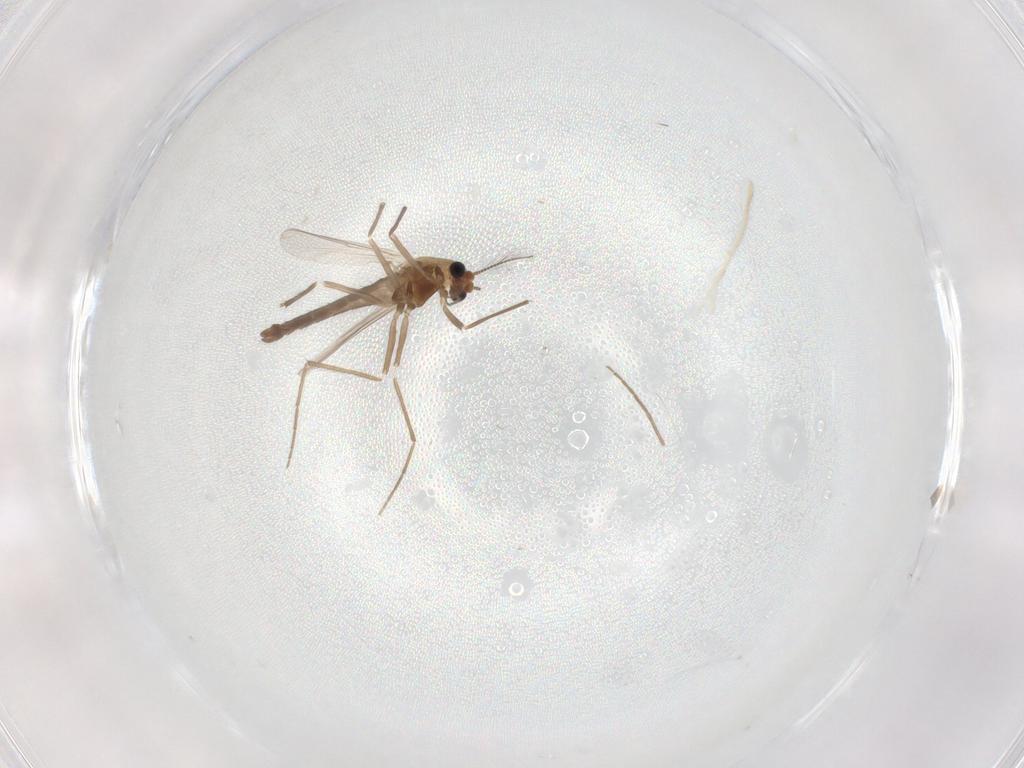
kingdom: Animalia
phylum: Arthropoda
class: Insecta
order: Diptera
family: Chironomidae
